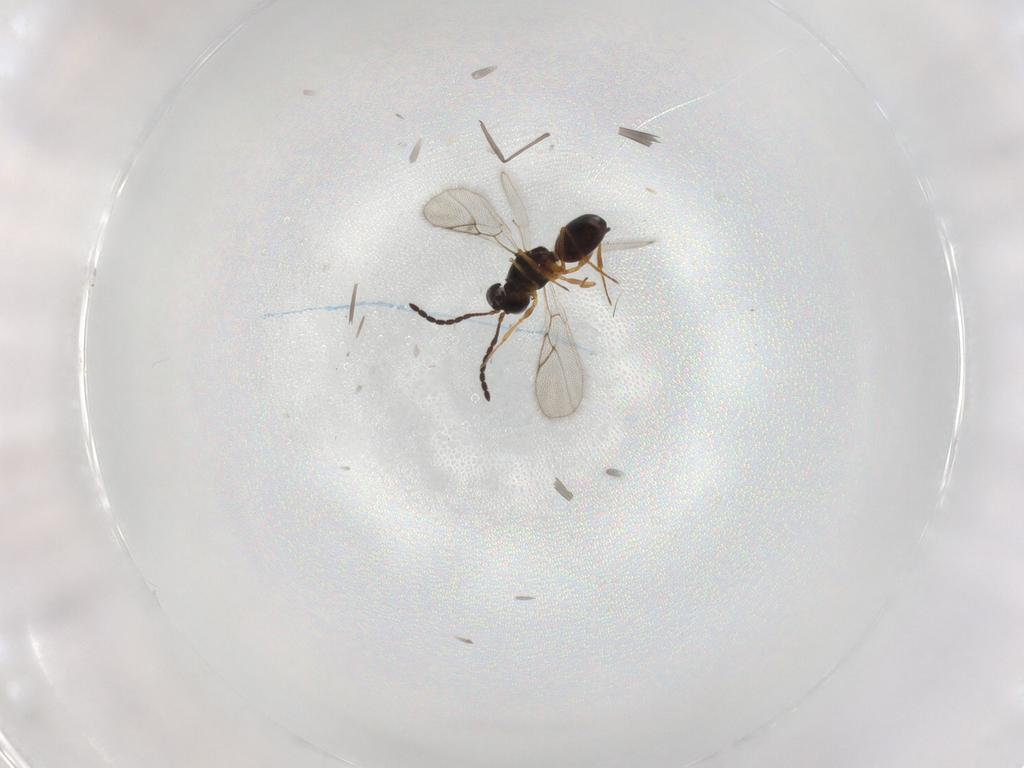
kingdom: Animalia
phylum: Arthropoda
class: Insecta
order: Hymenoptera
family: Figitidae
